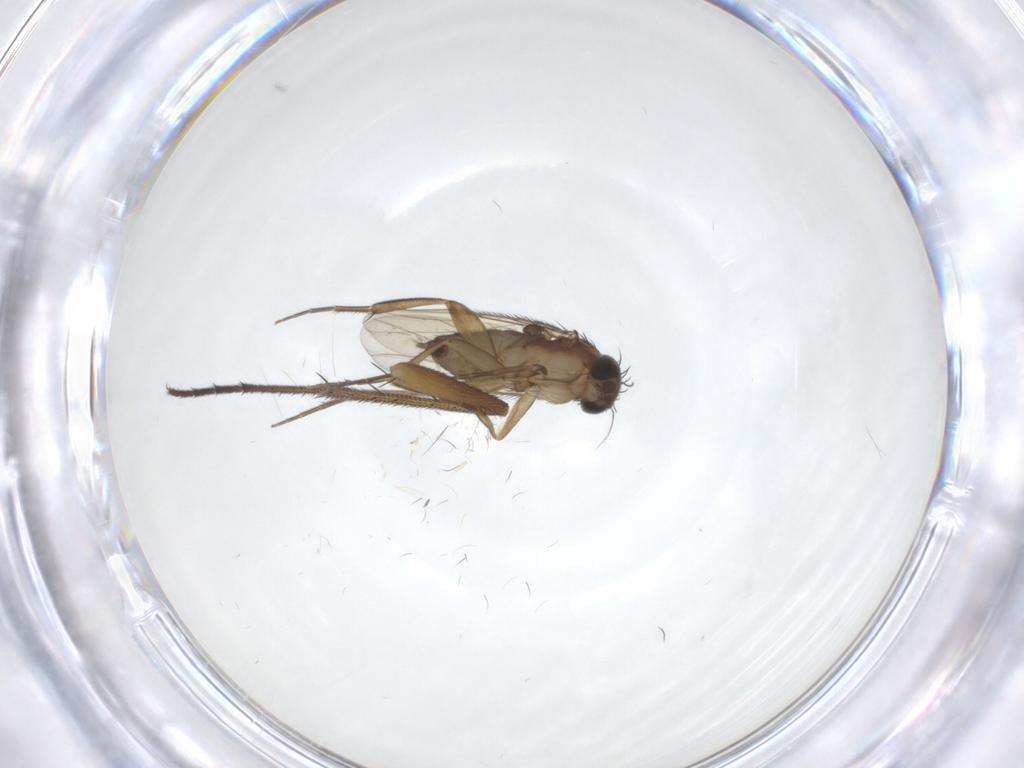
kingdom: Animalia
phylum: Arthropoda
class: Insecta
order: Diptera
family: Phoridae
